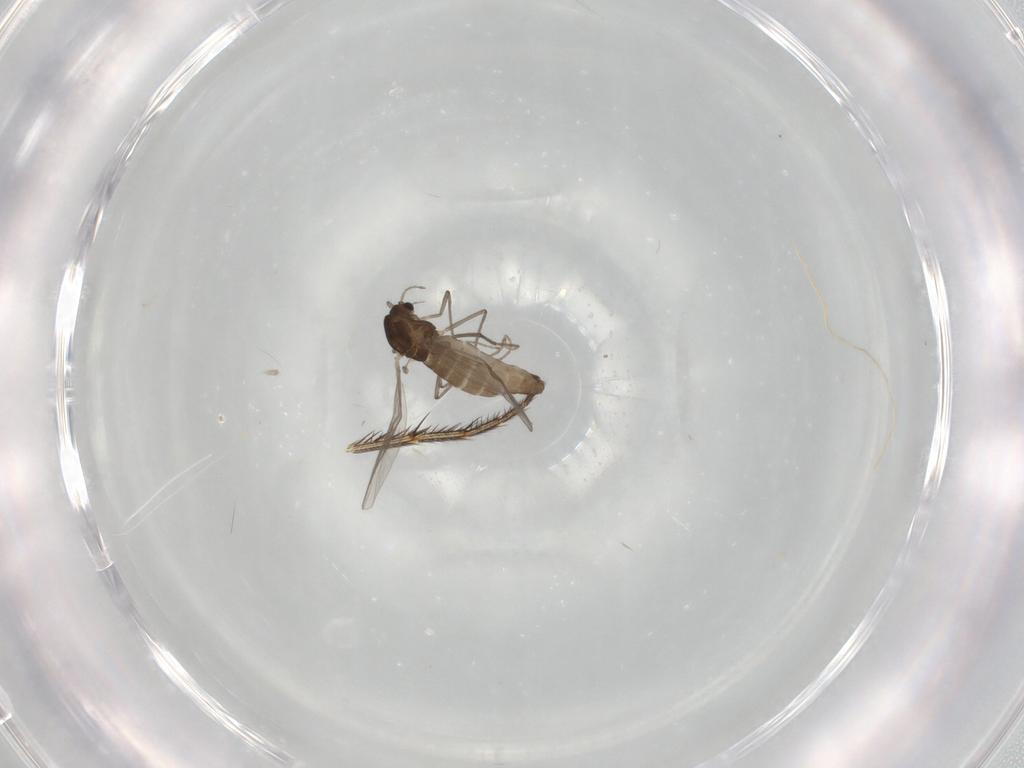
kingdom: Animalia
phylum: Arthropoda
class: Insecta
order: Diptera
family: Chironomidae
